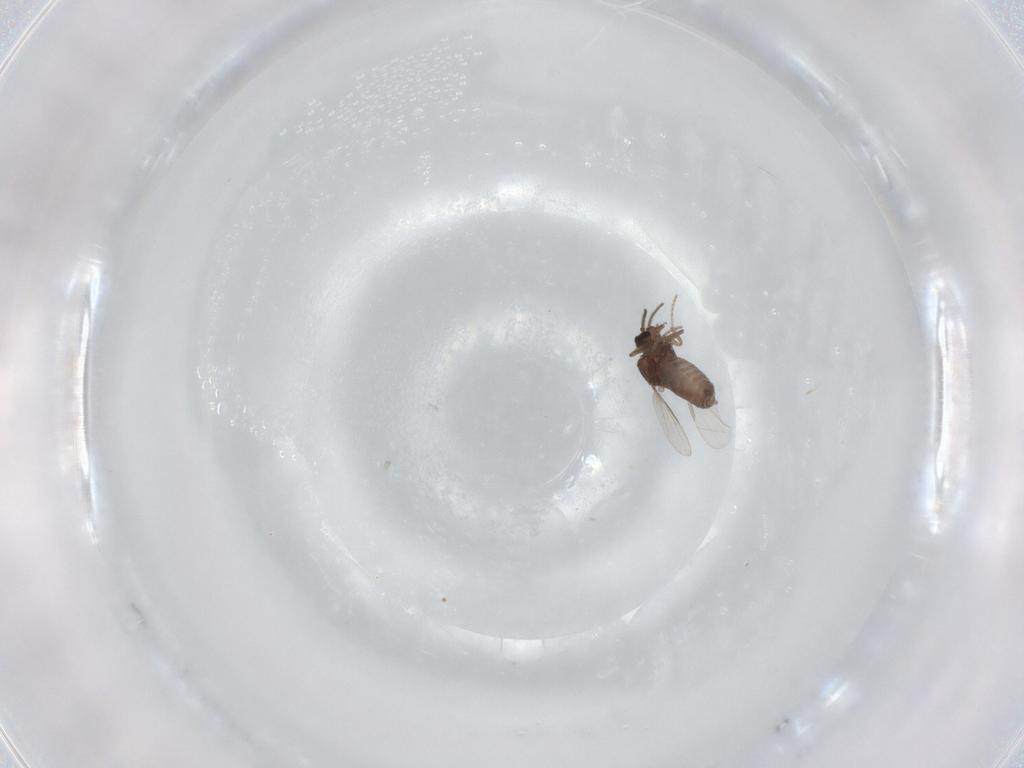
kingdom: Animalia
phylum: Arthropoda
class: Insecta
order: Diptera
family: Ceratopogonidae
